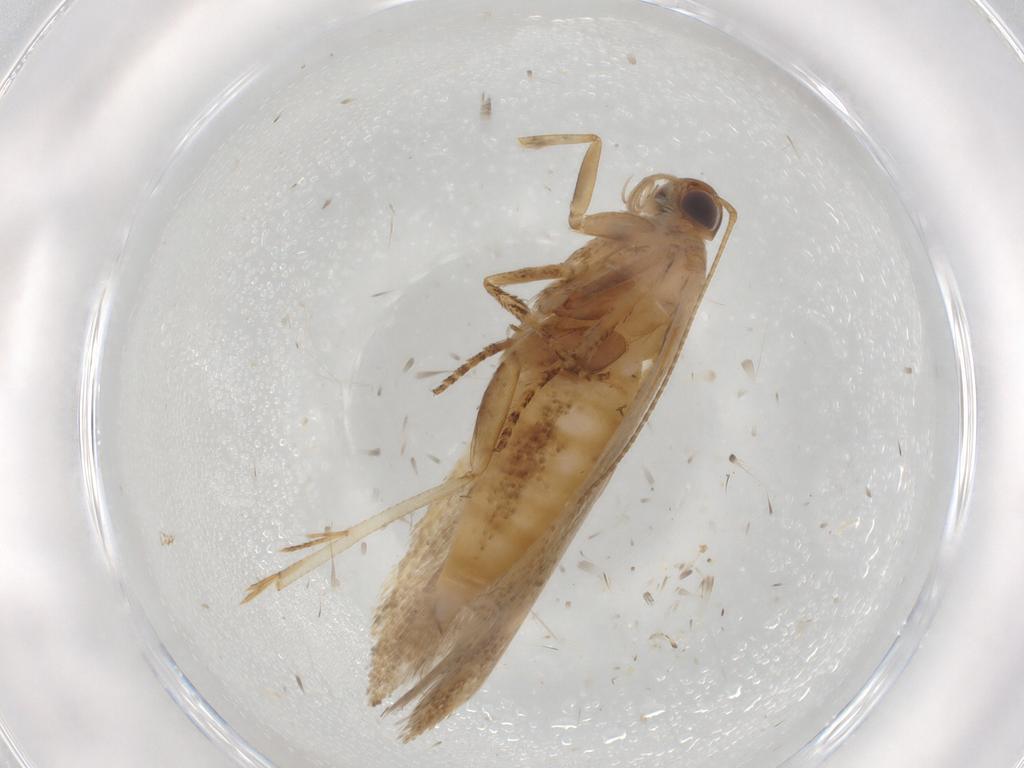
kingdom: Animalia
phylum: Arthropoda
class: Insecta
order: Lepidoptera
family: Gelechiidae
